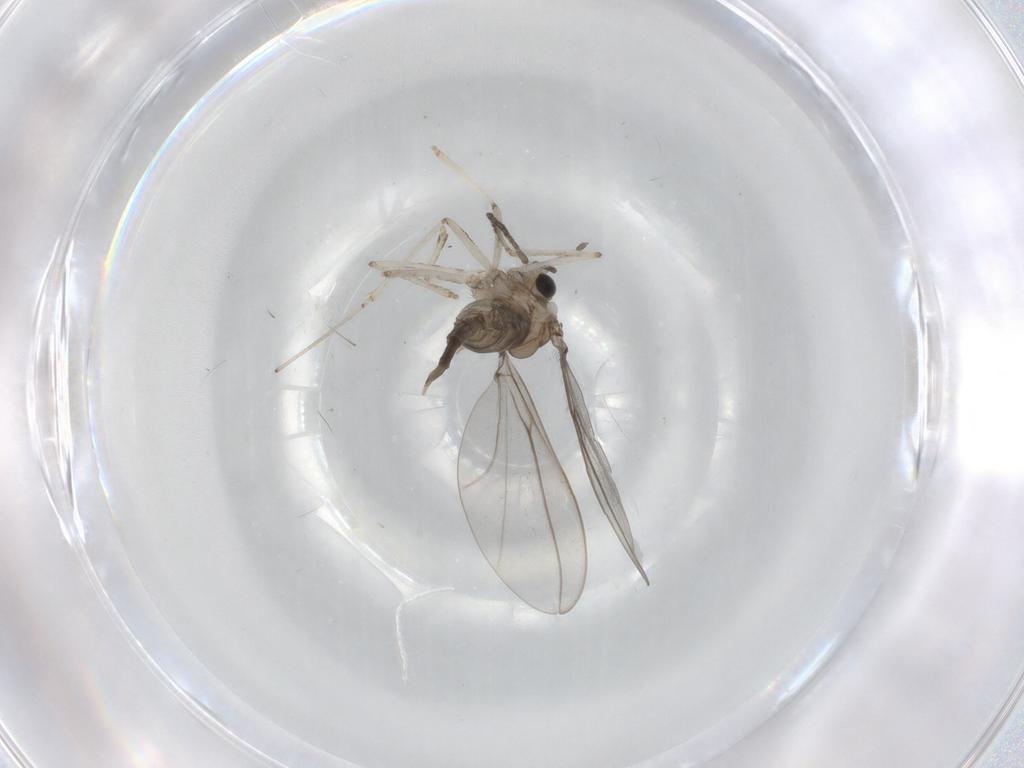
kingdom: Animalia
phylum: Arthropoda
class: Insecta
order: Diptera
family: Cecidomyiidae
